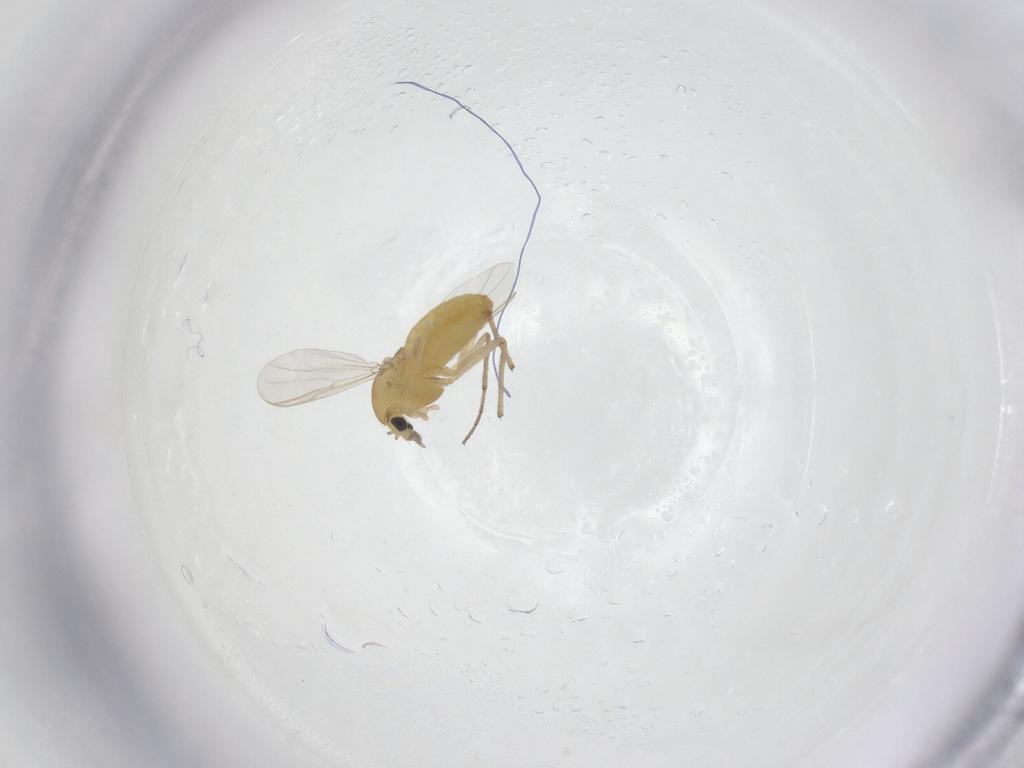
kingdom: Animalia
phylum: Arthropoda
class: Insecta
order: Diptera
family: Chironomidae
